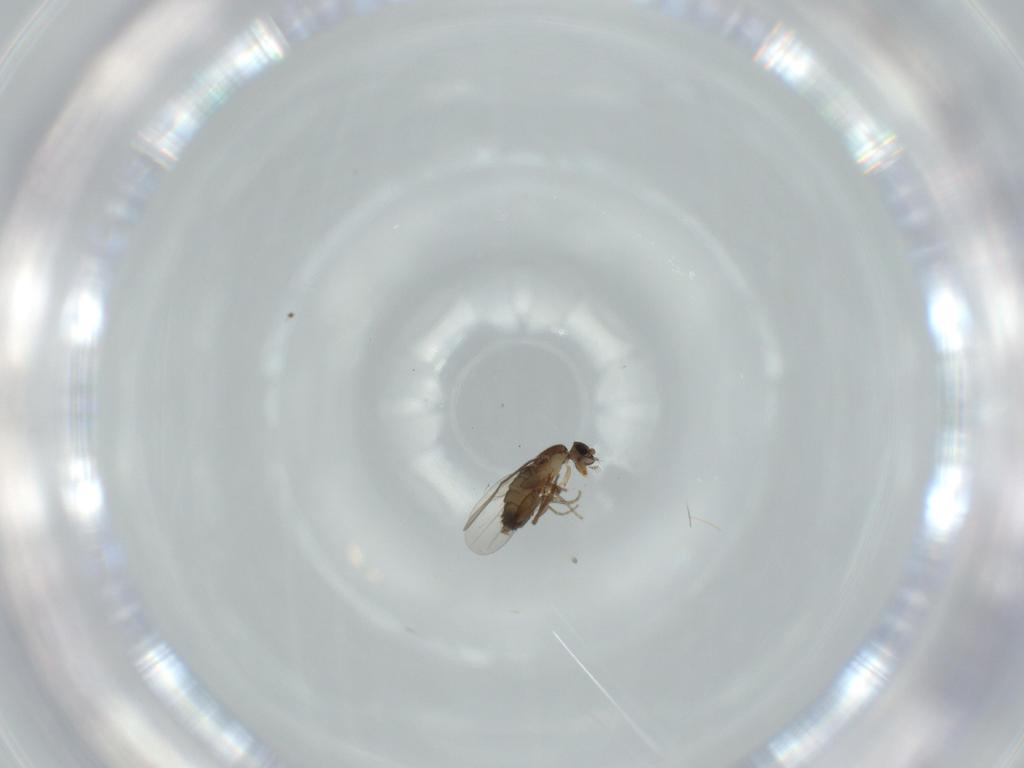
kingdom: Animalia
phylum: Arthropoda
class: Insecta
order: Diptera
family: Phoridae
